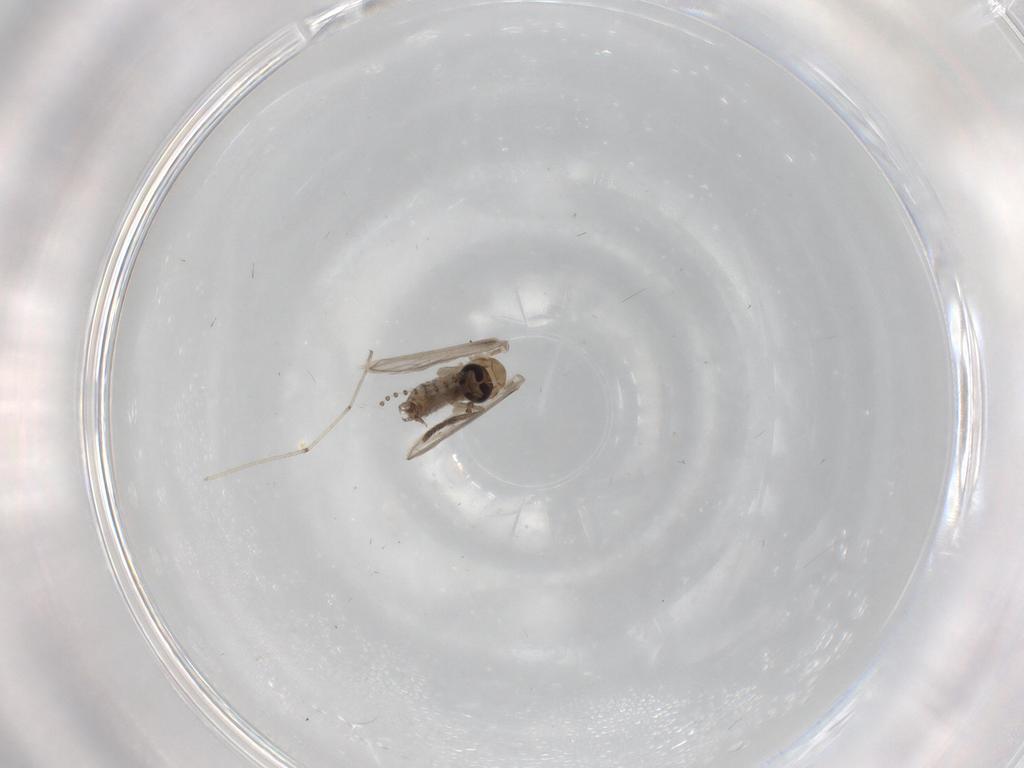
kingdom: Animalia
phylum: Arthropoda
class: Insecta
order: Diptera
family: Psychodidae
